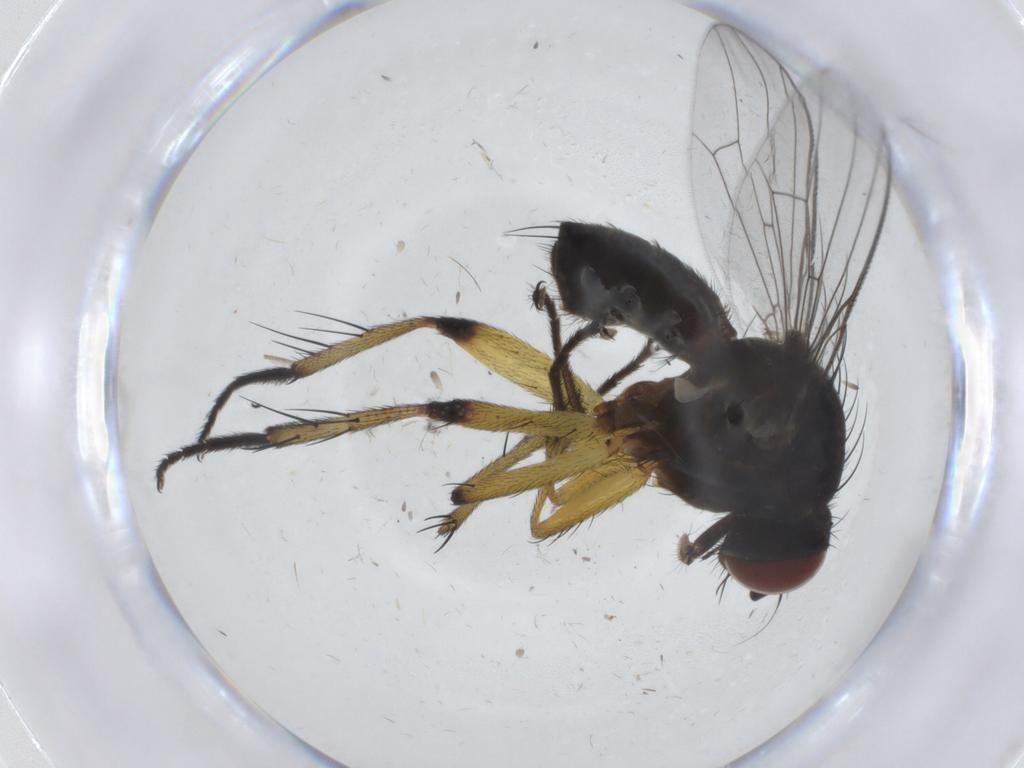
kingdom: Animalia
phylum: Arthropoda
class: Insecta
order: Diptera
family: Muscidae
